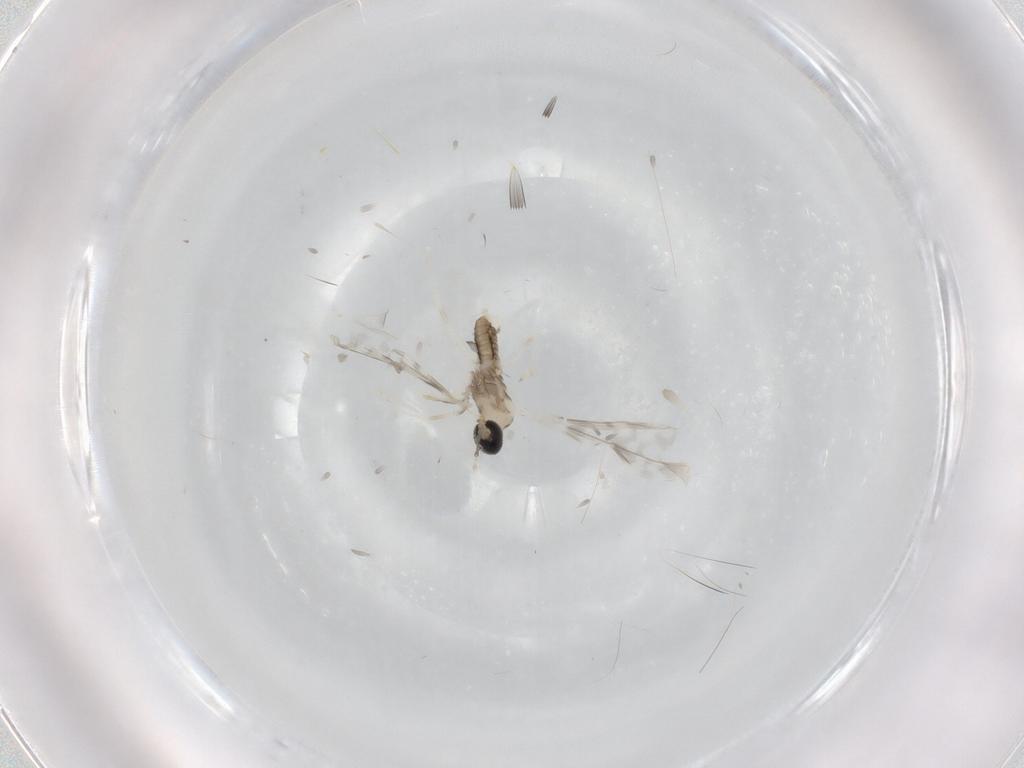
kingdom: Animalia
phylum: Arthropoda
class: Insecta
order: Diptera
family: Cecidomyiidae
